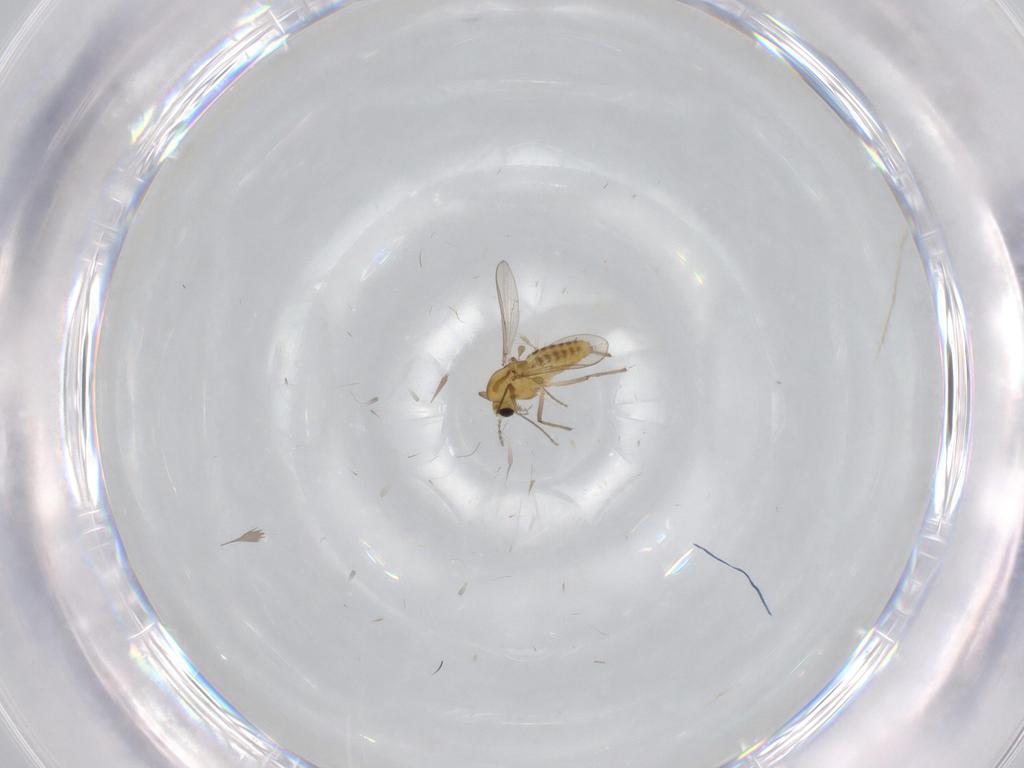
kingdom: Animalia
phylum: Arthropoda
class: Insecta
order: Diptera
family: Chironomidae
